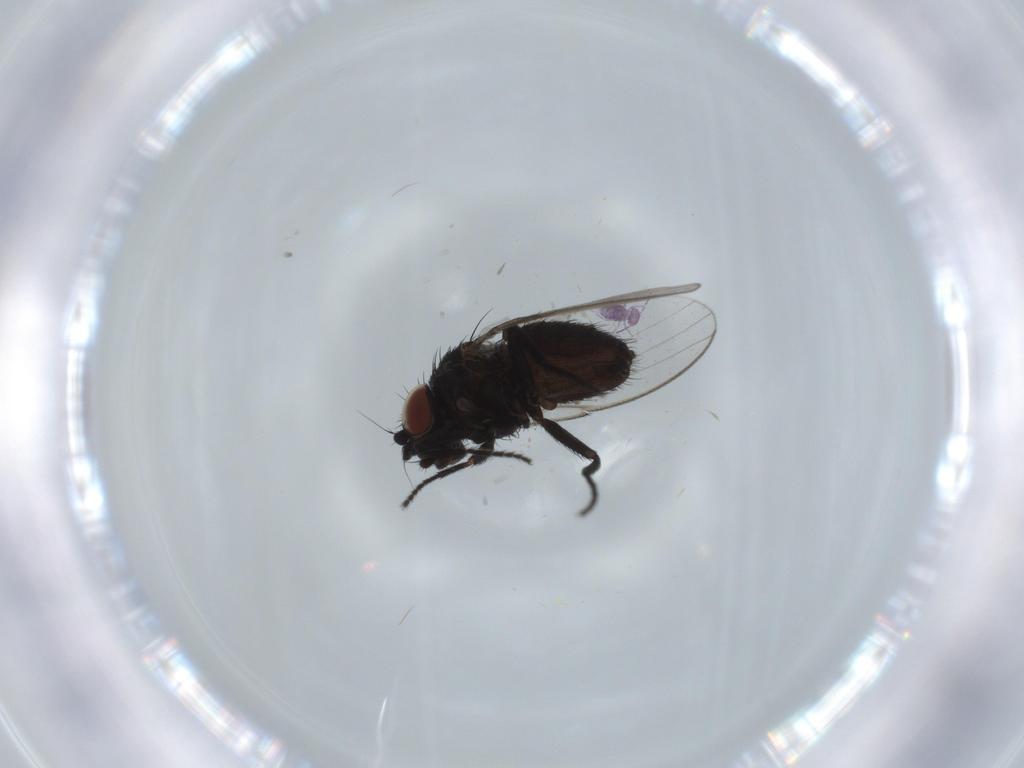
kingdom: Animalia
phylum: Arthropoda
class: Insecta
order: Diptera
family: Milichiidae
